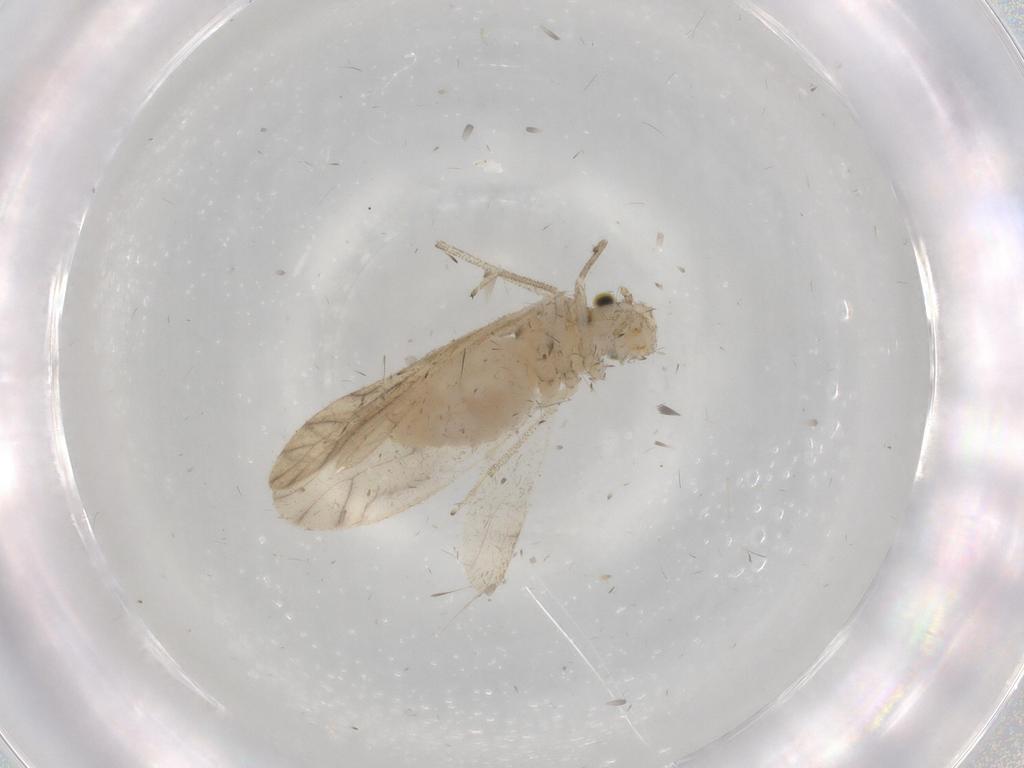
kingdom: Animalia
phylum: Arthropoda
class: Insecta
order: Psocodea
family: Caeciliusidae
